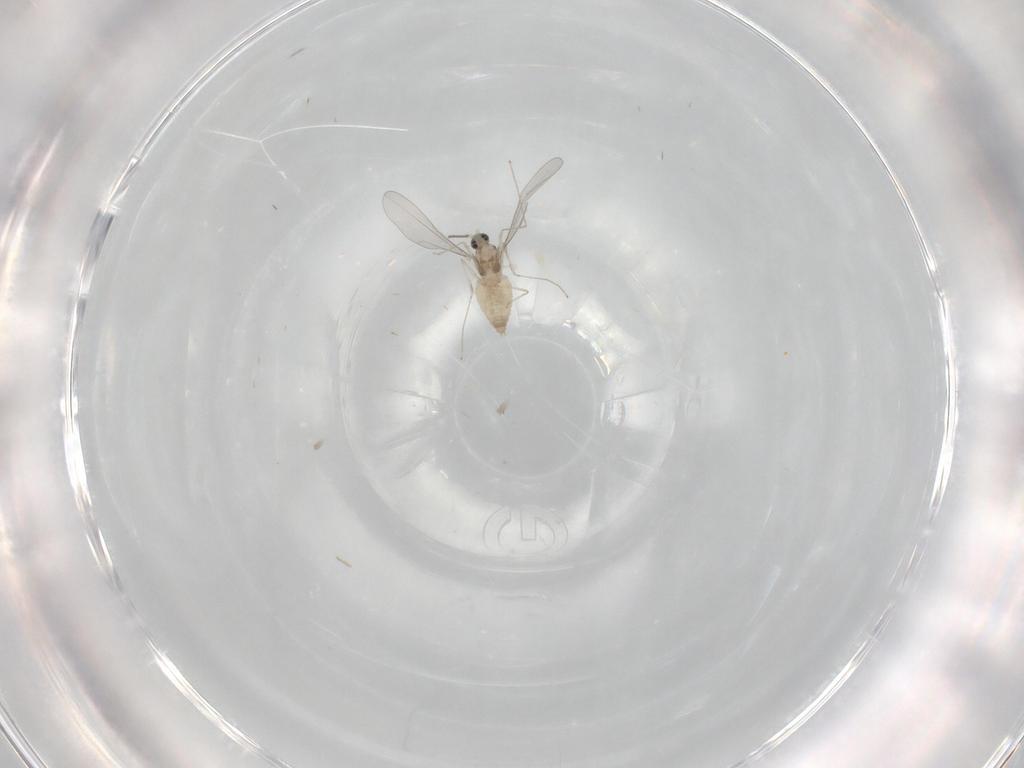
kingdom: Animalia
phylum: Arthropoda
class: Insecta
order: Diptera
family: Cecidomyiidae
